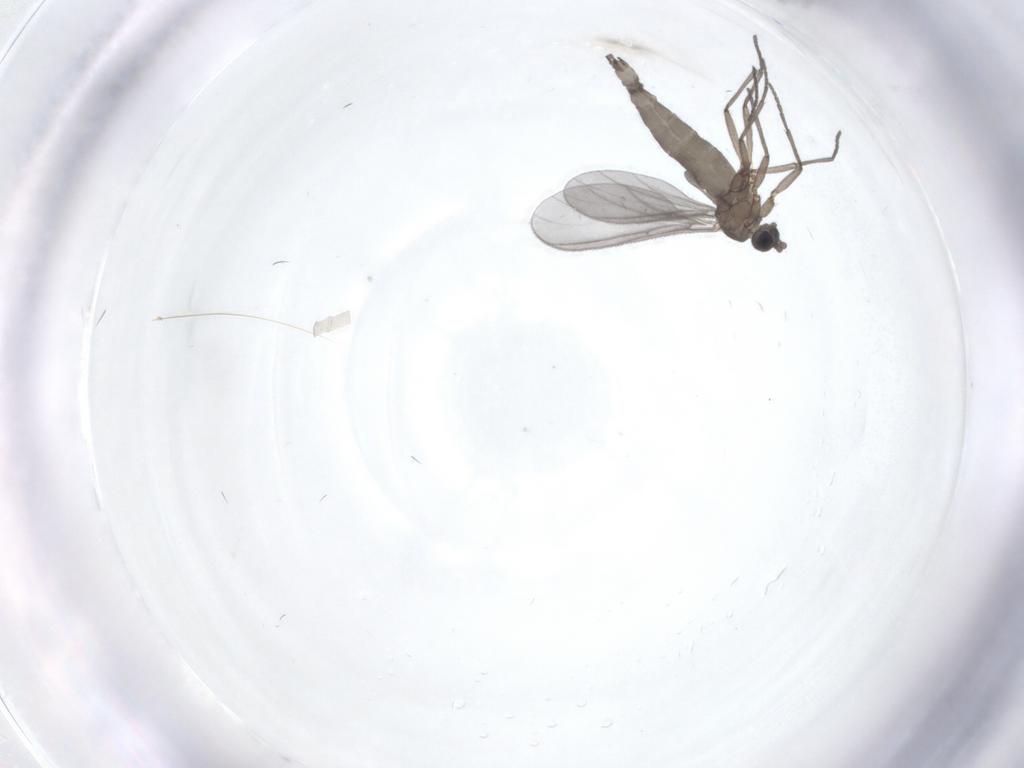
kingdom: Animalia
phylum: Arthropoda
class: Insecta
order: Diptera
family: Sciaridae
